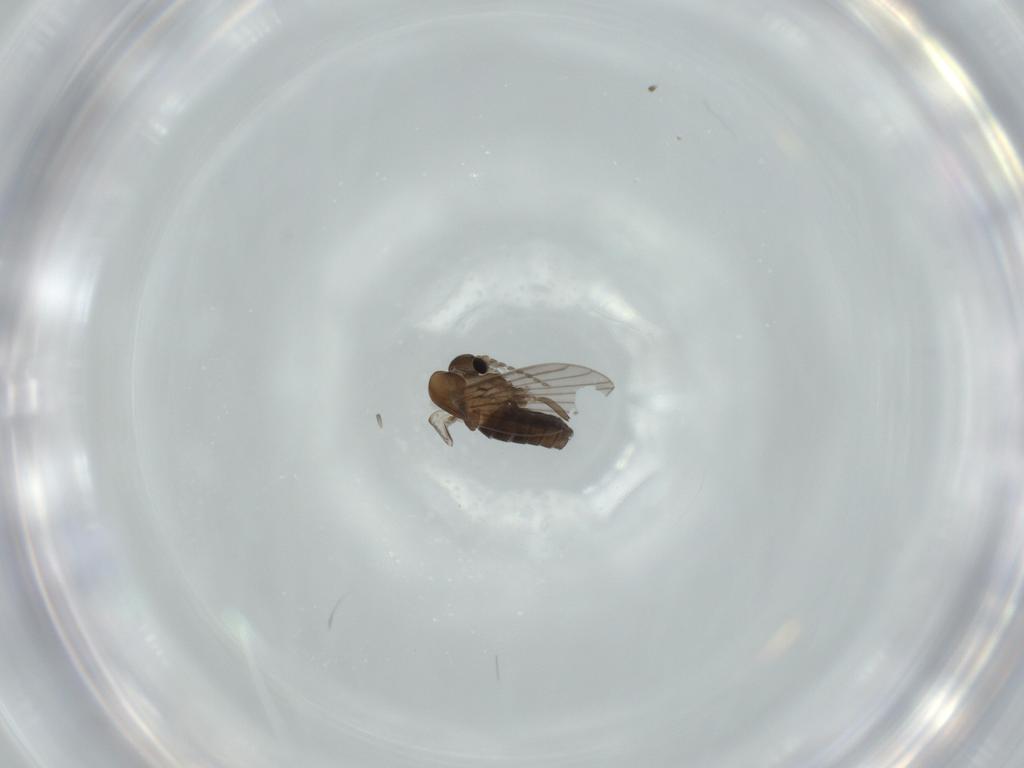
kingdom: Animalia
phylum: Arthropoda
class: Insecta
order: Diptera
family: Psychodidae
